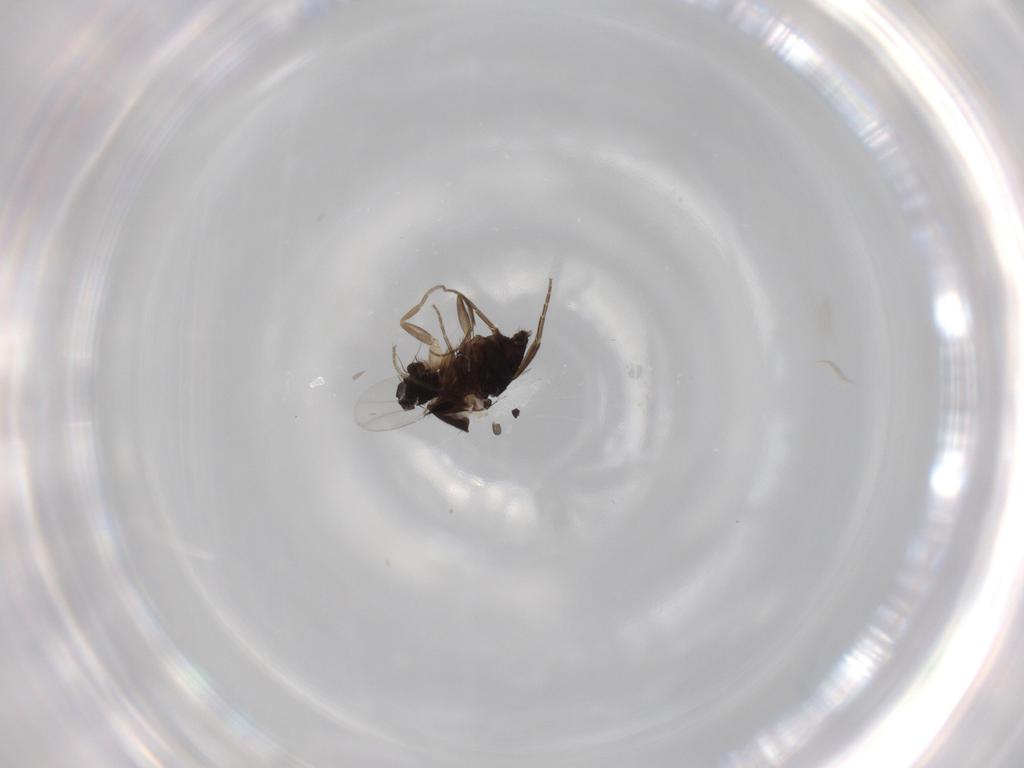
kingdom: Animalia
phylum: Arthropoda
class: Insecta
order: Diptera
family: Phoridae
